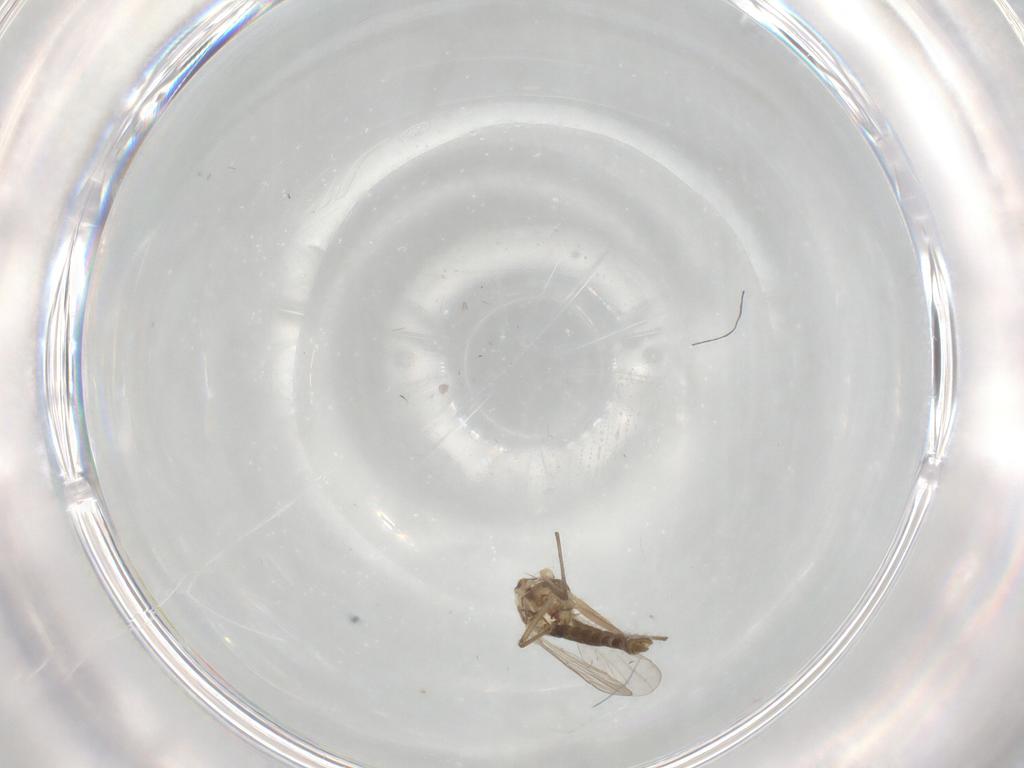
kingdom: Animalia
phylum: Arthropoda
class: Insecta
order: Diptera
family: Chironomidae
